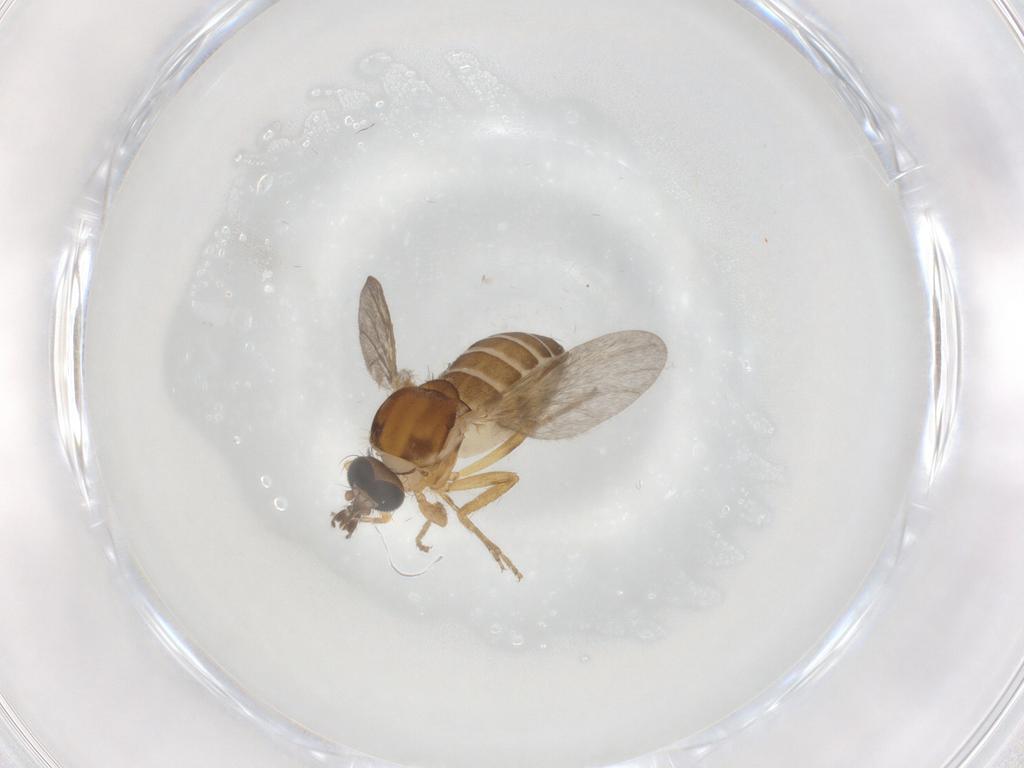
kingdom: Animalia
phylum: Arthropoda
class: Insecta
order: Diptera
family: Ceratopogonidae
